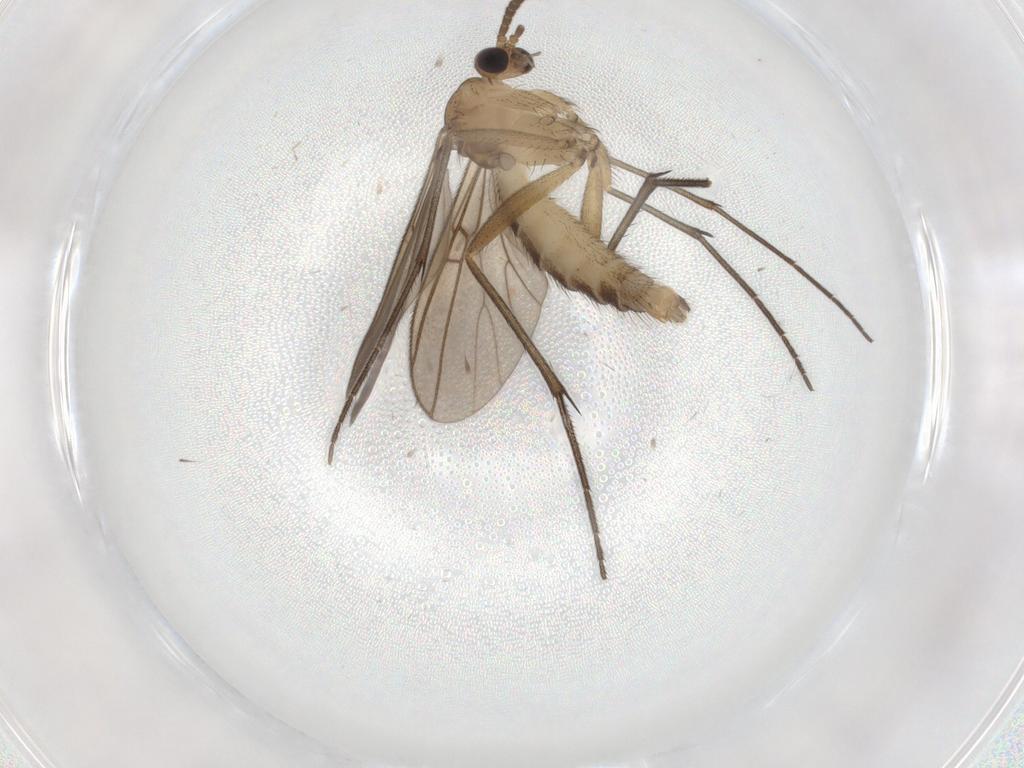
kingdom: Animalia
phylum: Arthropoda
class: Insecta
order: Diptera
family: Mycetophilidae
